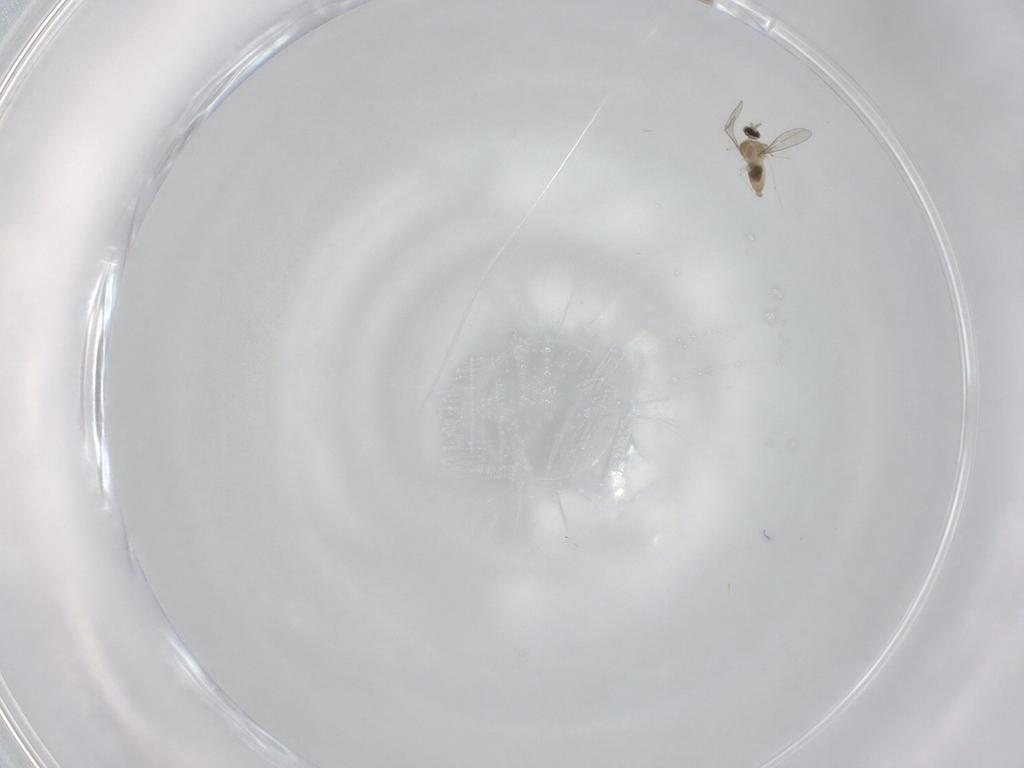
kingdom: Animalia
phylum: Arthropoda
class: Insecta
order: Diptera
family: Cecidomyiidae
